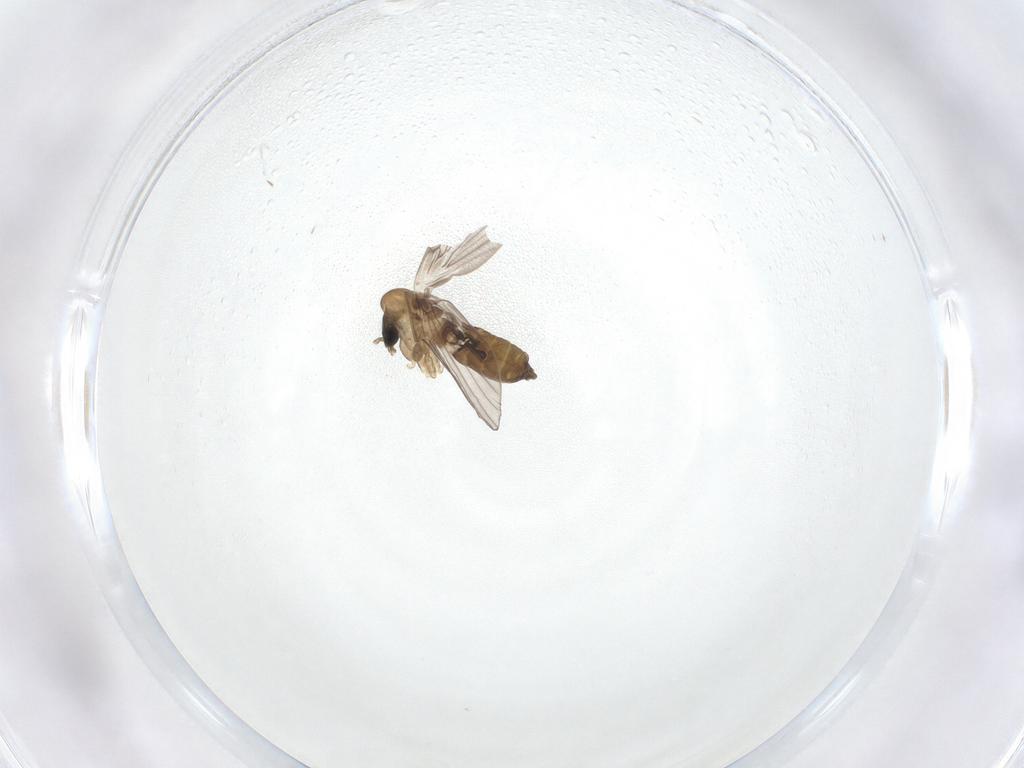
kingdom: Animalia
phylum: Arthropoda
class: Insecta
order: Diptera
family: Psychodidae
